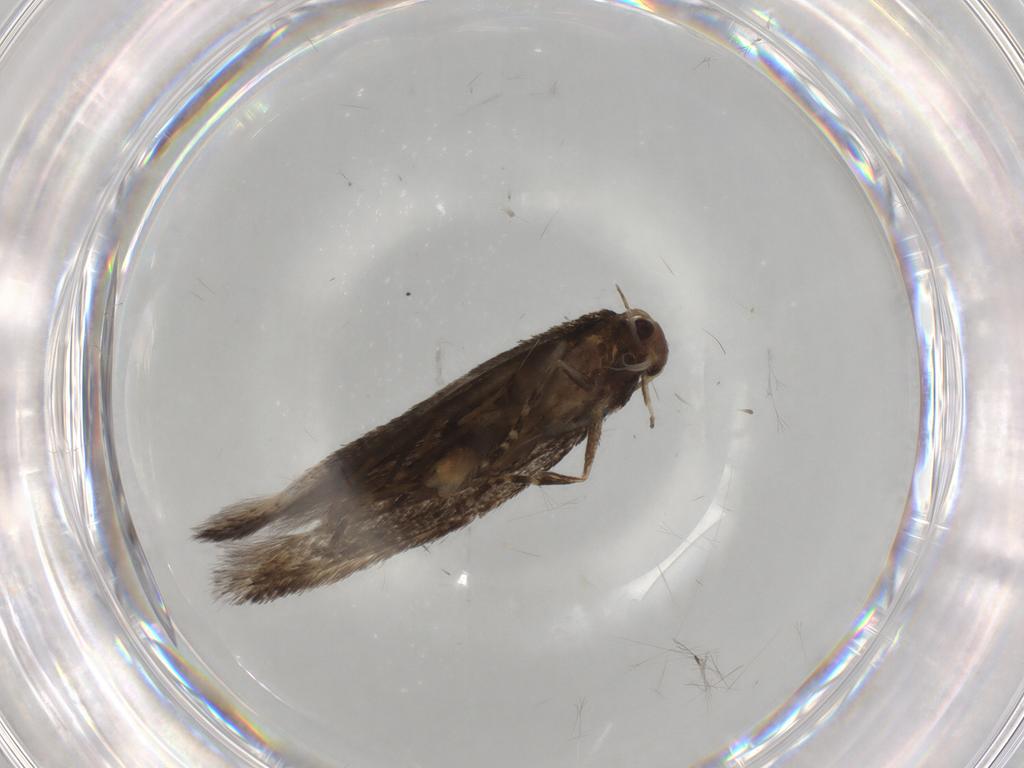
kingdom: Animalia
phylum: Arthropoda
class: Insecta
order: Lepidoptera
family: Elachistidae
